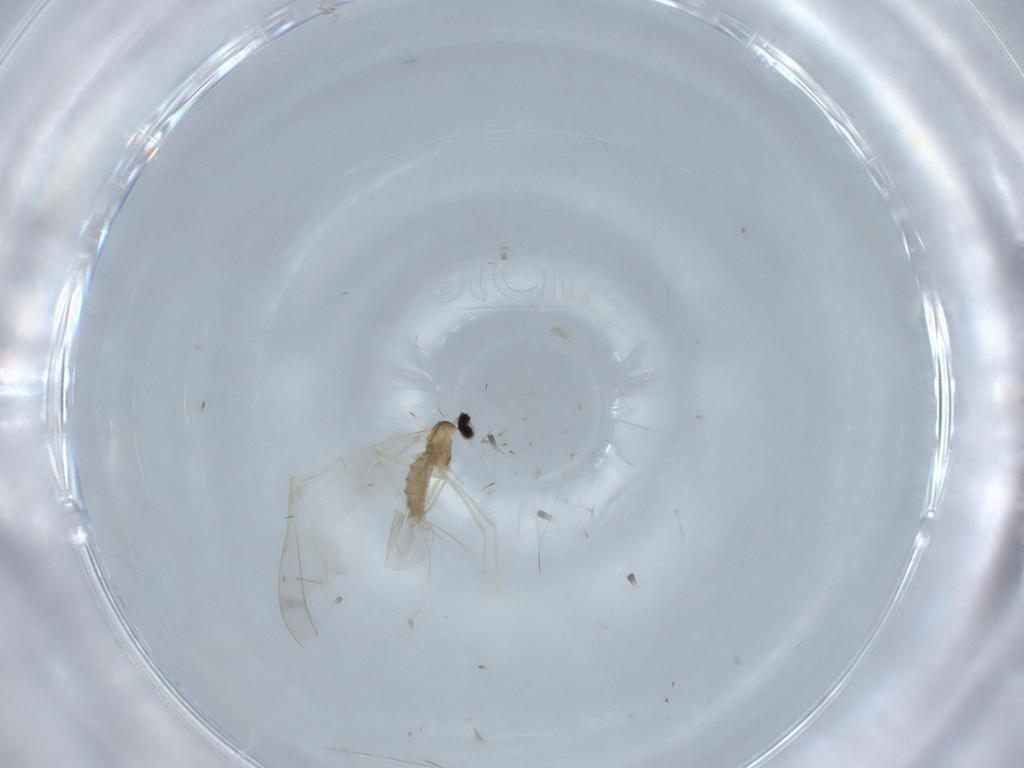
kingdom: Animalia
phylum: Arthropoda
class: Insecta
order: Diptera
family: Cecidomyiidae
